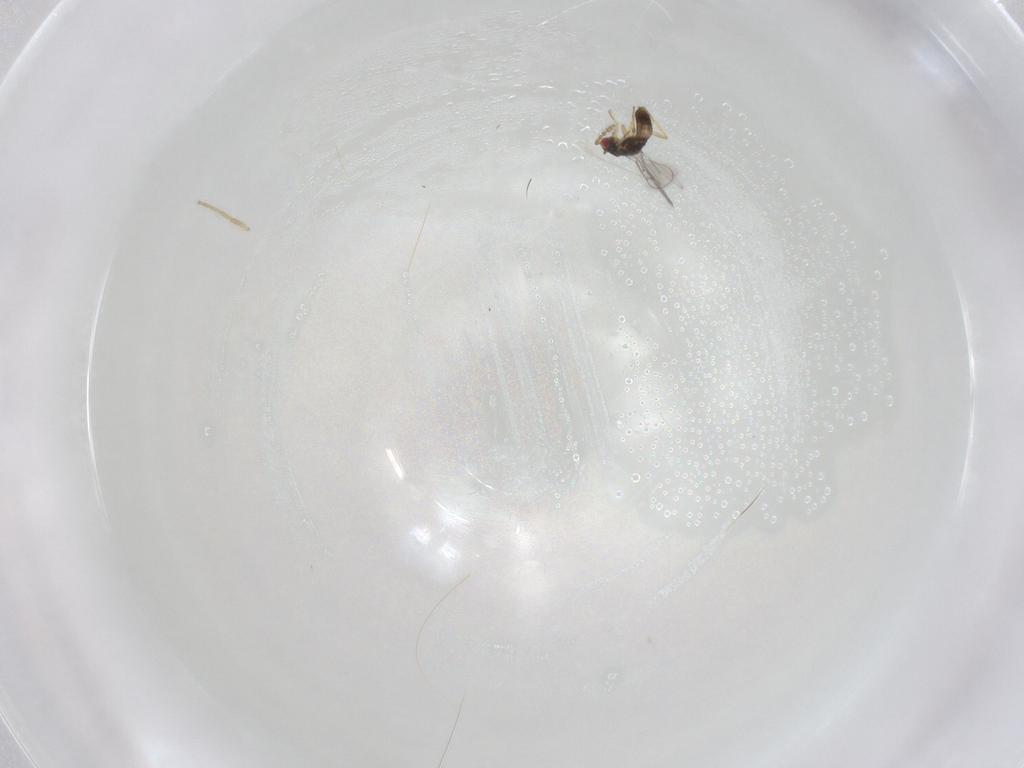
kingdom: Animalia
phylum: Arthropoda
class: Insecta
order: Hymenoptera
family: Eulophidae
